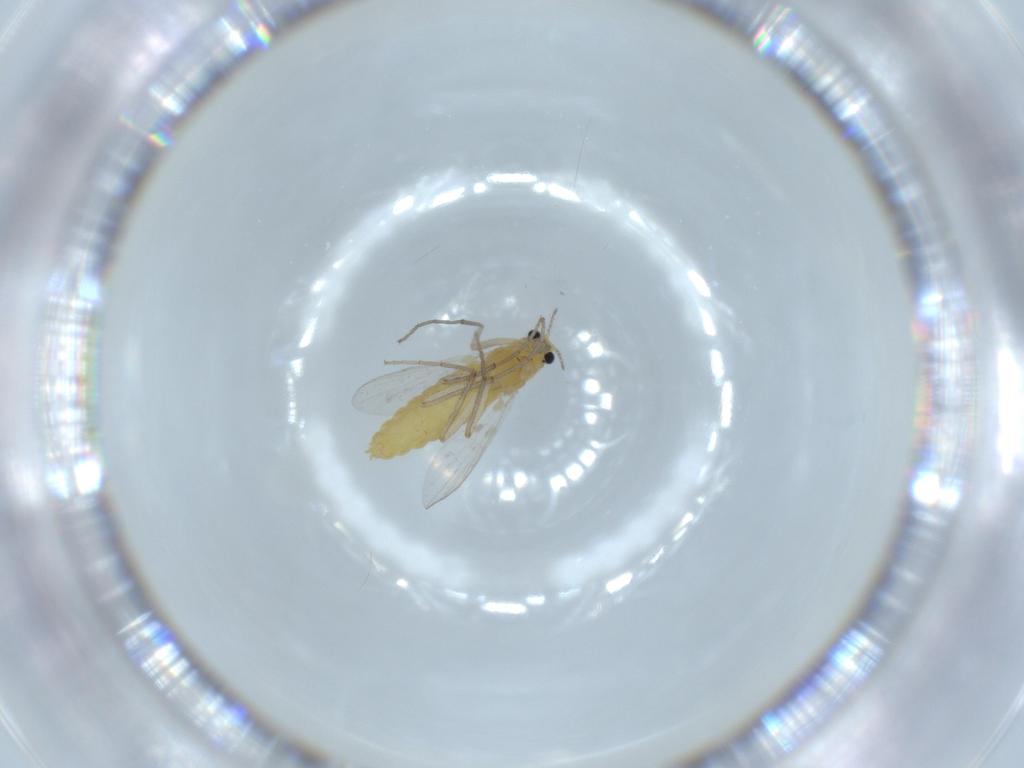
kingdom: Animalia
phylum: Arthropoda
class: Insecta
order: Diptera
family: Chironomidae
